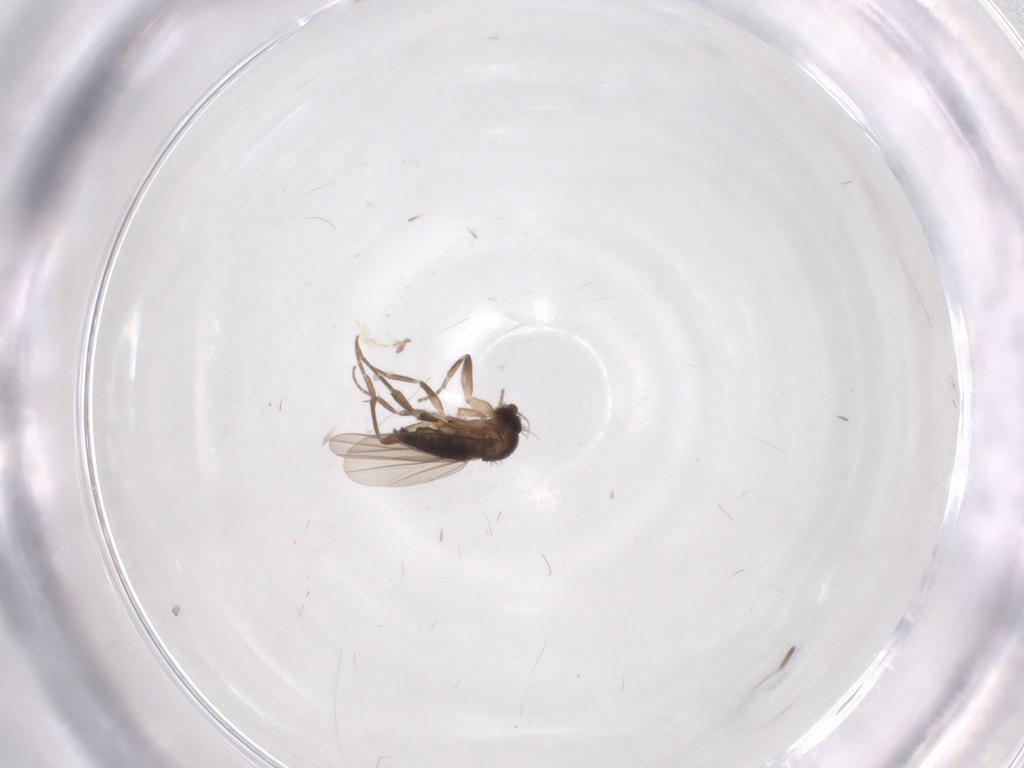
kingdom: Animalia
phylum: Arthropoda
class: Insecta
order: Diptera
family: Phoridae
